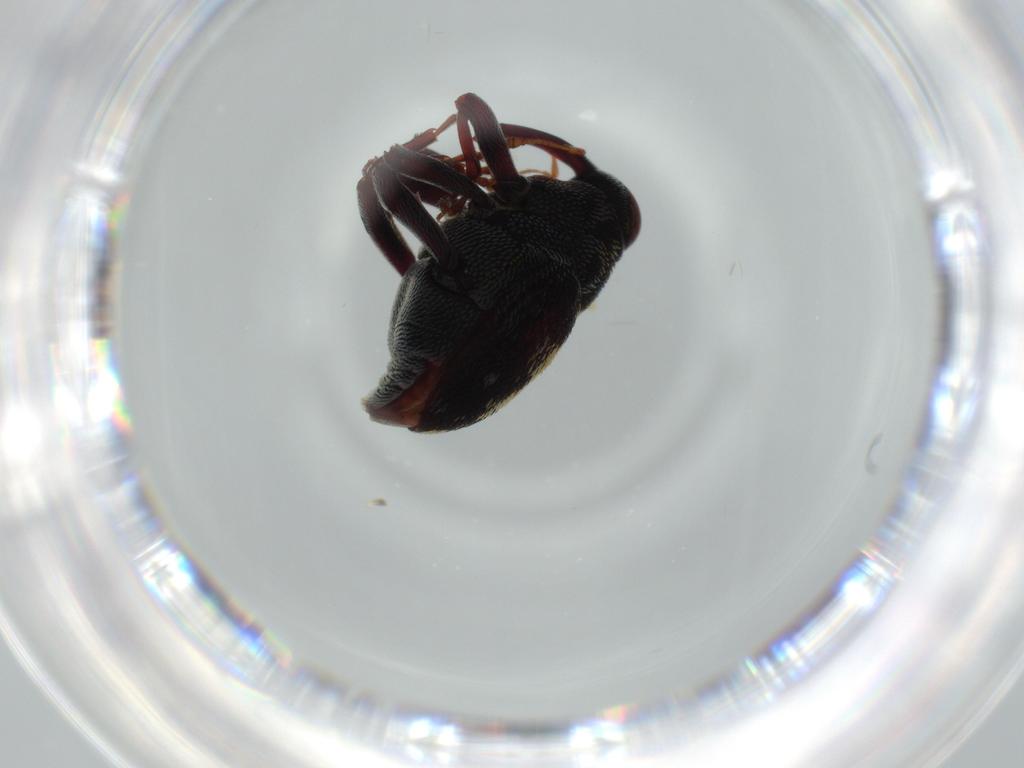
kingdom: Animalia
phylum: Arthropoda
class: Insecta
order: Coleoptera
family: Curculionidae
